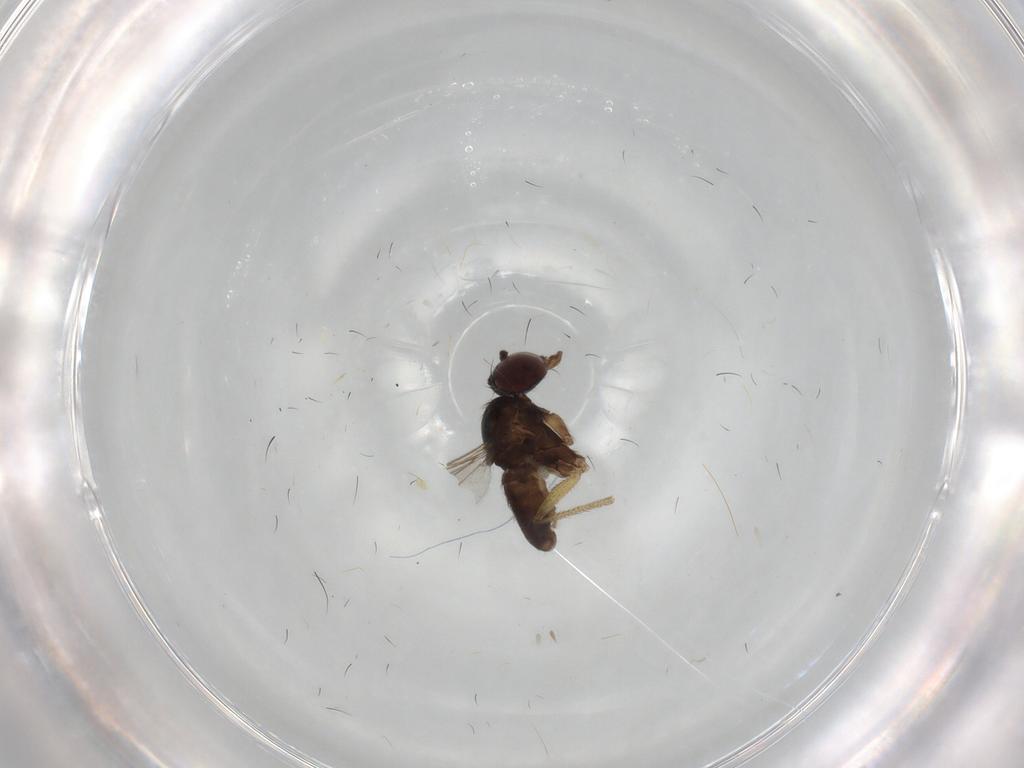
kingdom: Animalia
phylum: Arthropoda
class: Insecta
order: Diptera
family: Dolichopodidae
